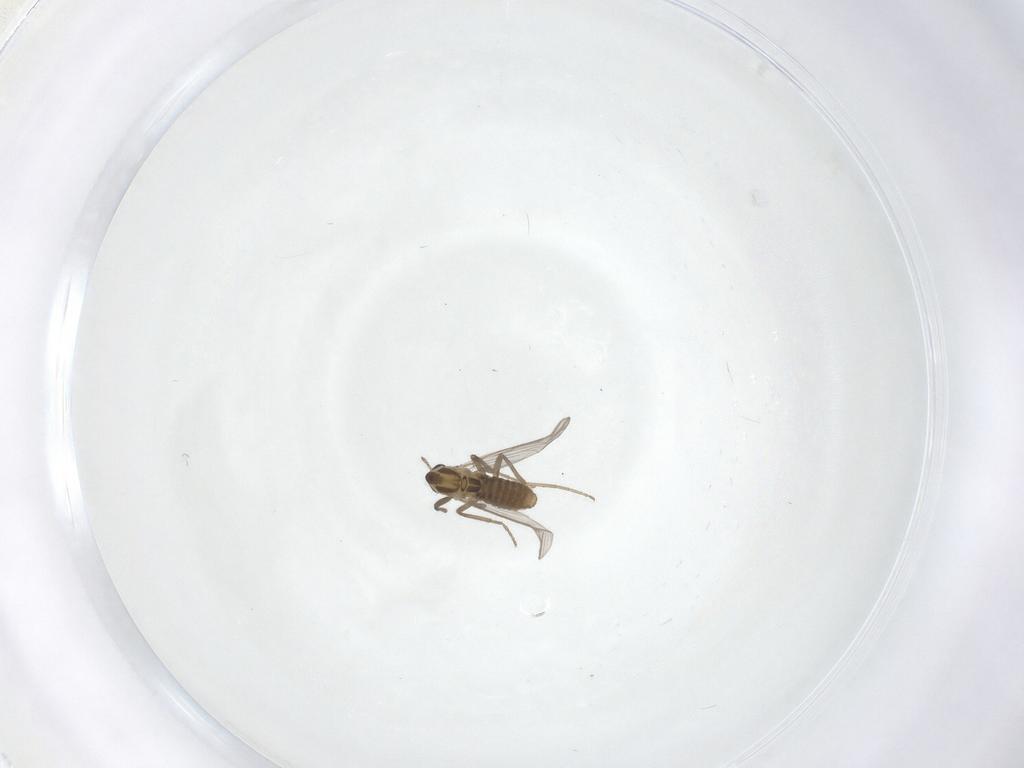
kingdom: Animalia
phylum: Arthropoda
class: Insecta
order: Diptera
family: Chironomidae
